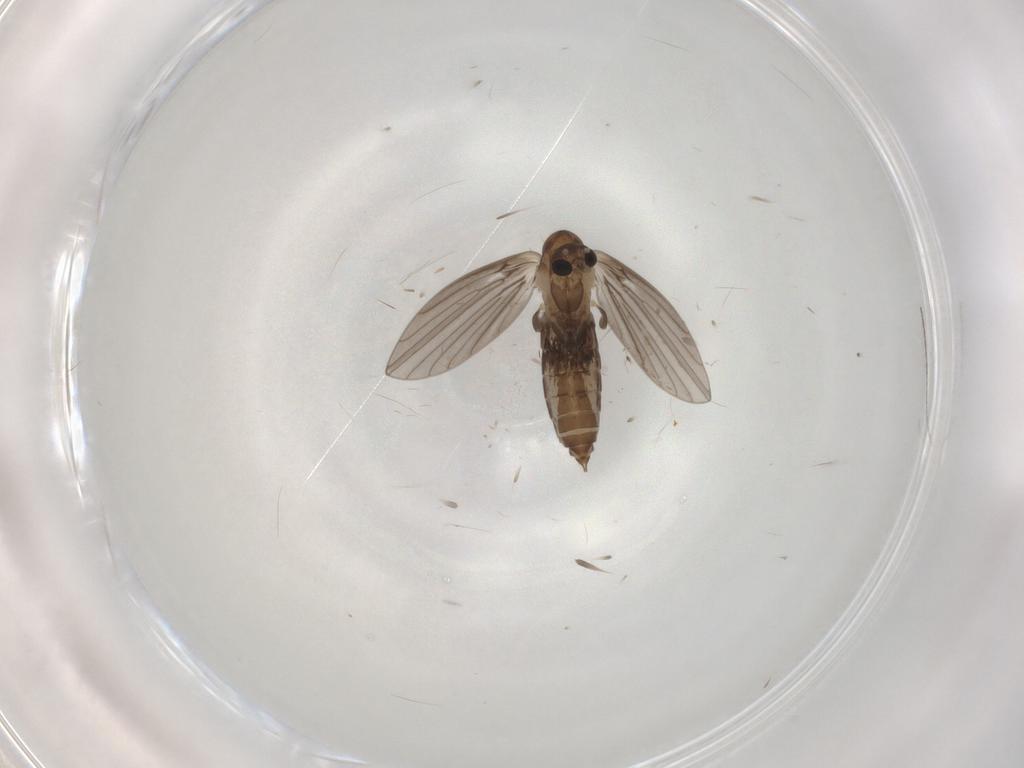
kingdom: Animalia
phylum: Arthropoda
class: Insecta
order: Diptera
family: Psychodidae
